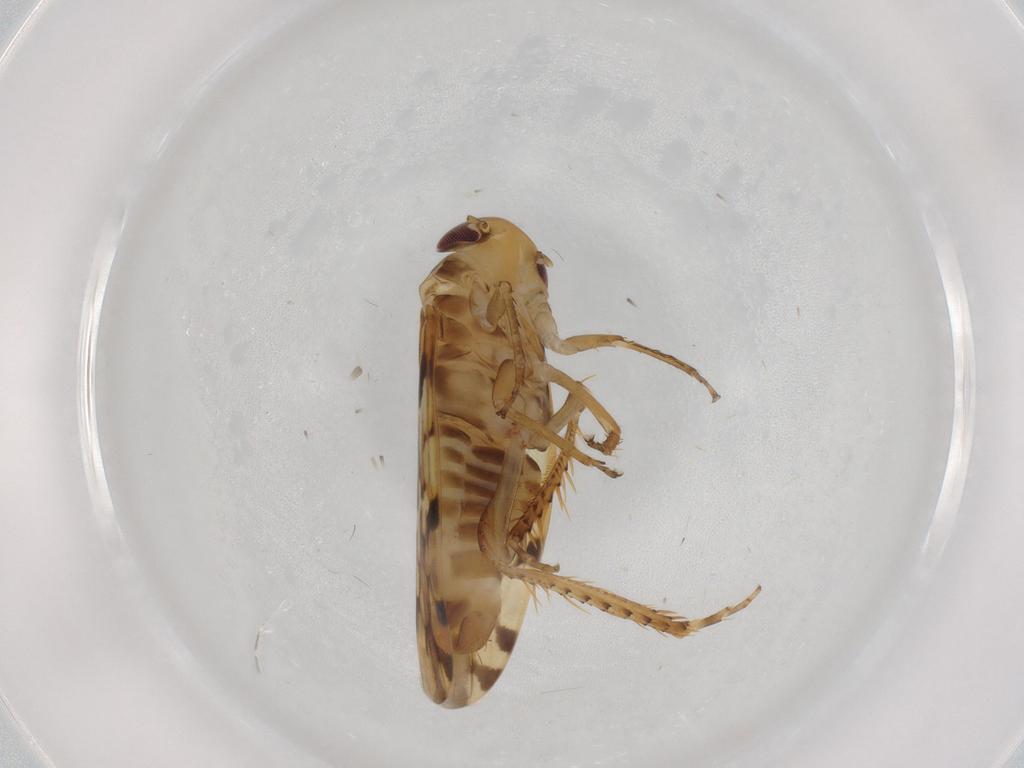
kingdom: Animalia
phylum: Arthropoda
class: Insecta
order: Hemiptera
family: Cicadellidae
